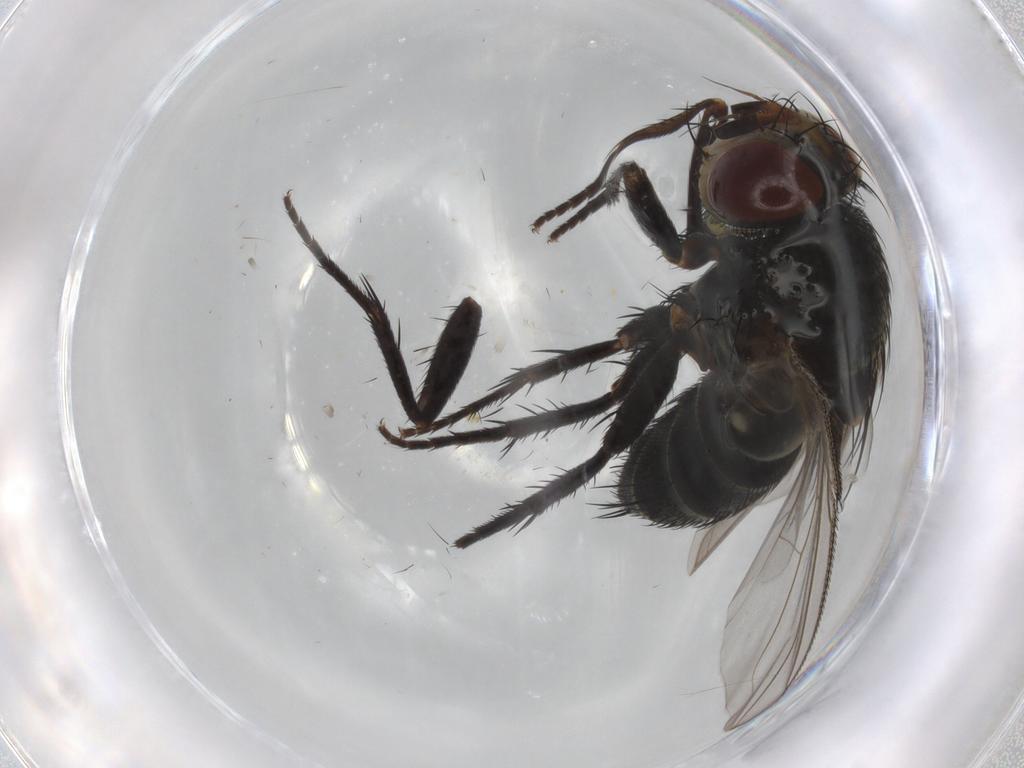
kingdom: Animalia
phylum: Arthropoda
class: Insecta
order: Diptera
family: Tachinidae
